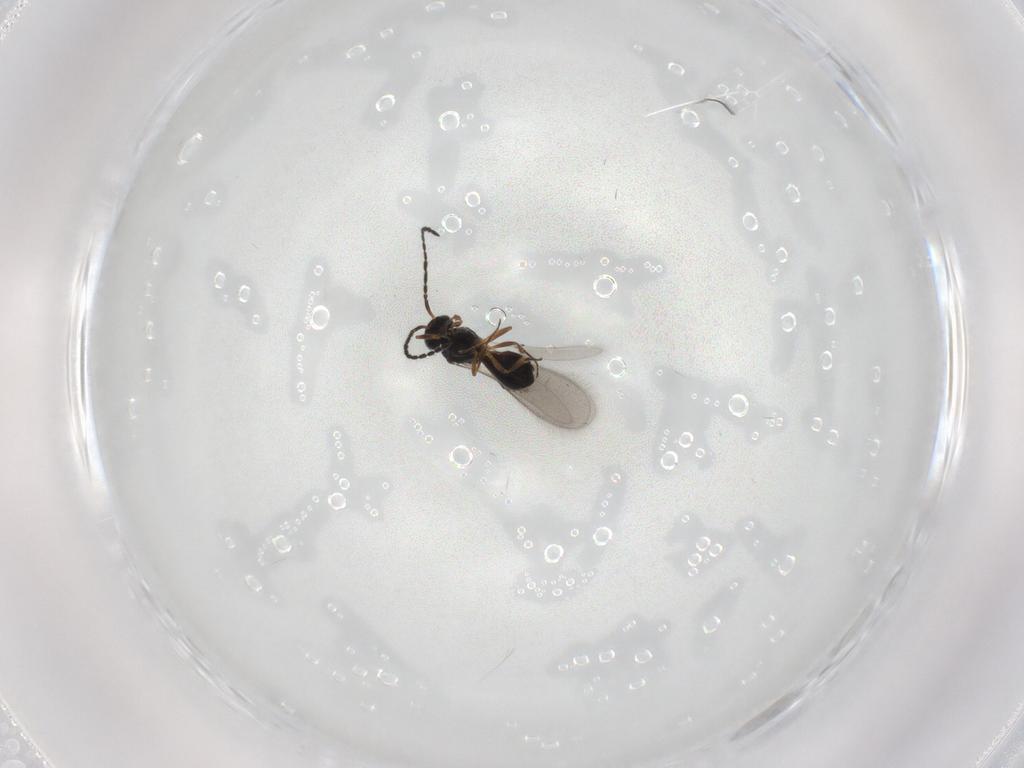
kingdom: Animalia
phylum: Arthropoda
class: Insecta
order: Hymenoptera
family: Scelionidae
